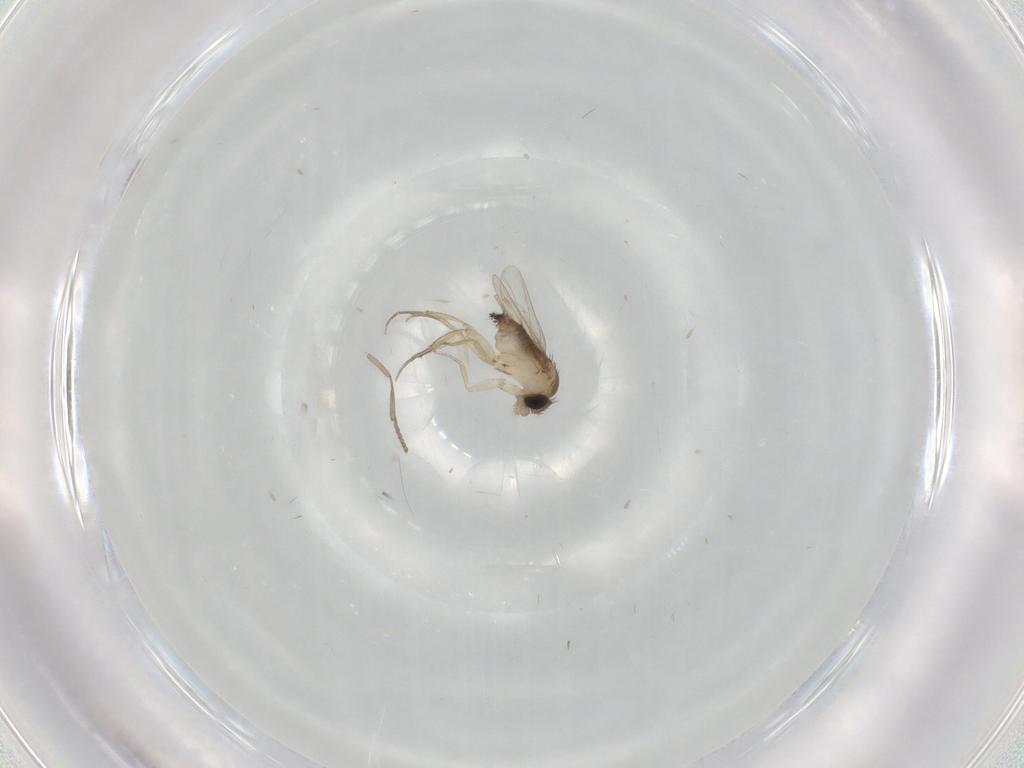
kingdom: Animalia
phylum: Arthropoda
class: Insecta
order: Diptera
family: Phoridae
